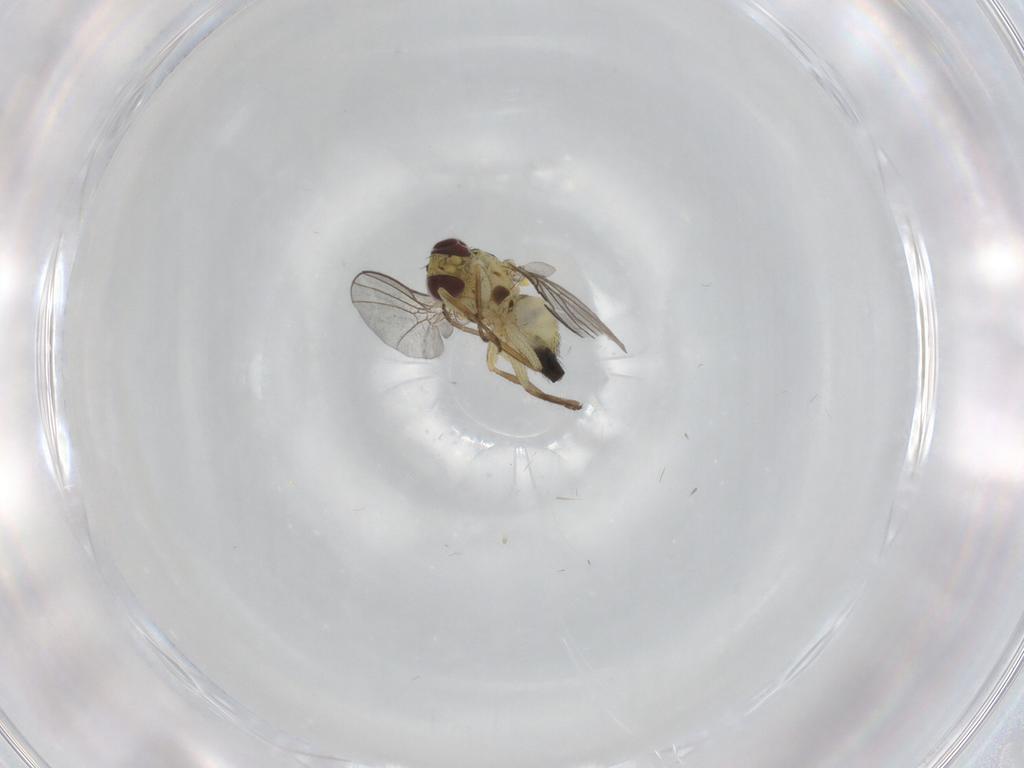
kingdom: Animalia
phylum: Arthropoda
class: Insecta
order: Diptera
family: Agromyzidae
